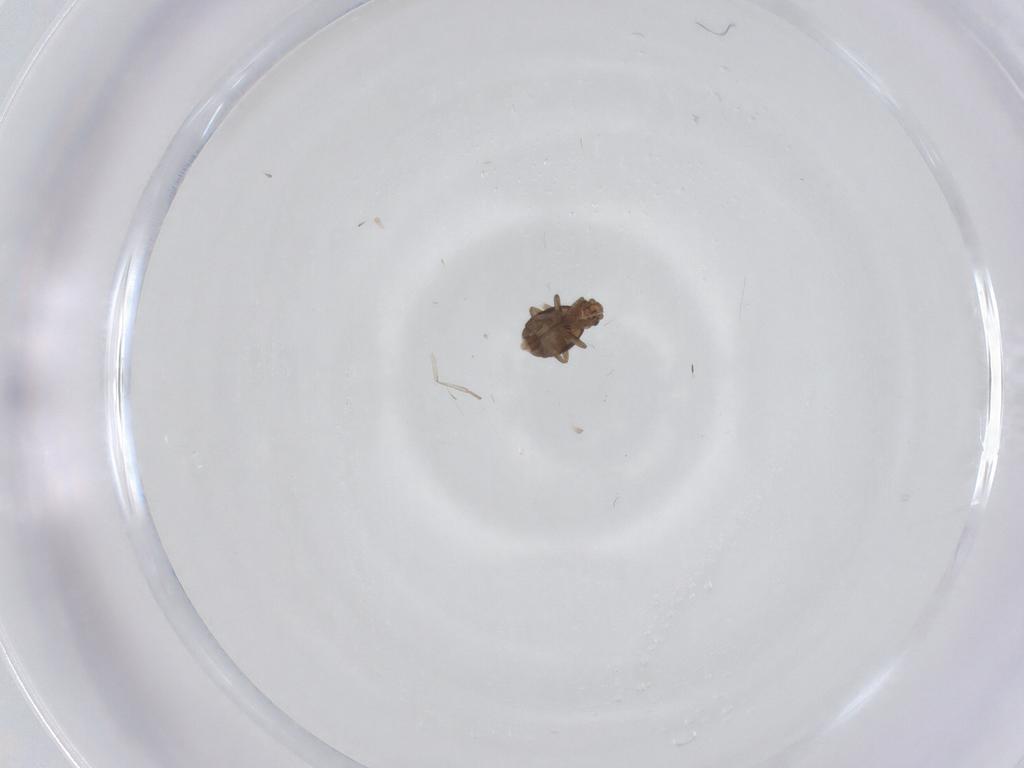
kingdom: Animalia
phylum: Arthropoda
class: Insecta
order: Diptera
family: Phoridae
